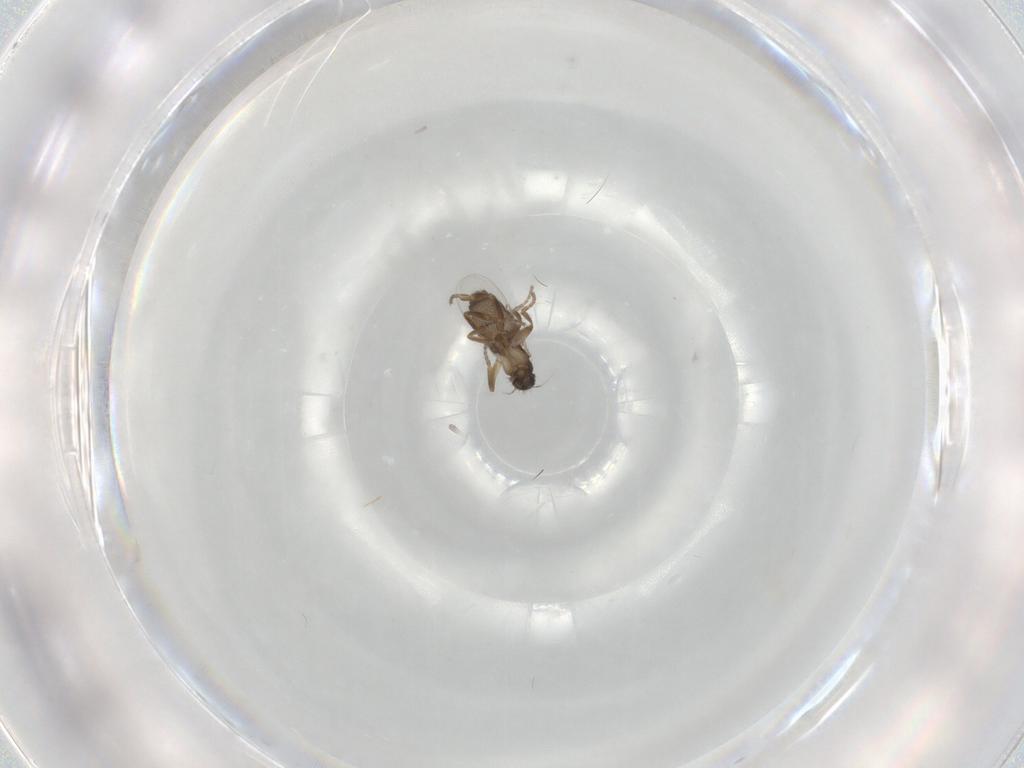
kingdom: Animalia
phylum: Arthropoda
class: Insecta
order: Diptera
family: Phoridae
